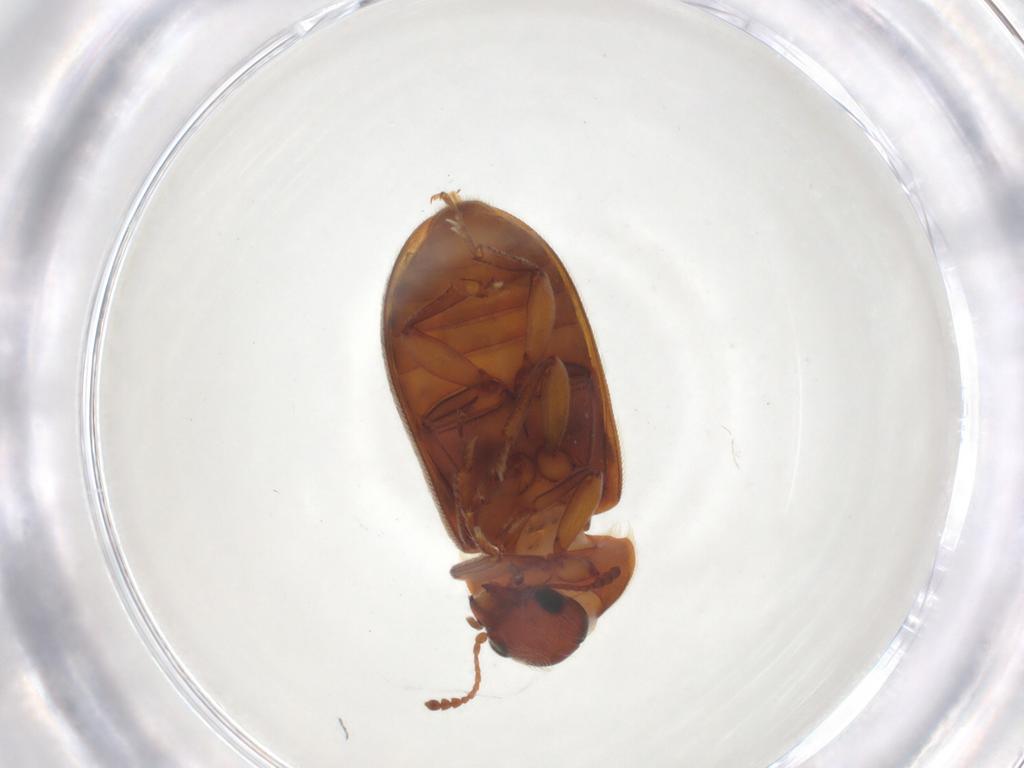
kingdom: Animalia
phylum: Arthropoda
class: Insecta
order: Coleoptera
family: Byturidae
